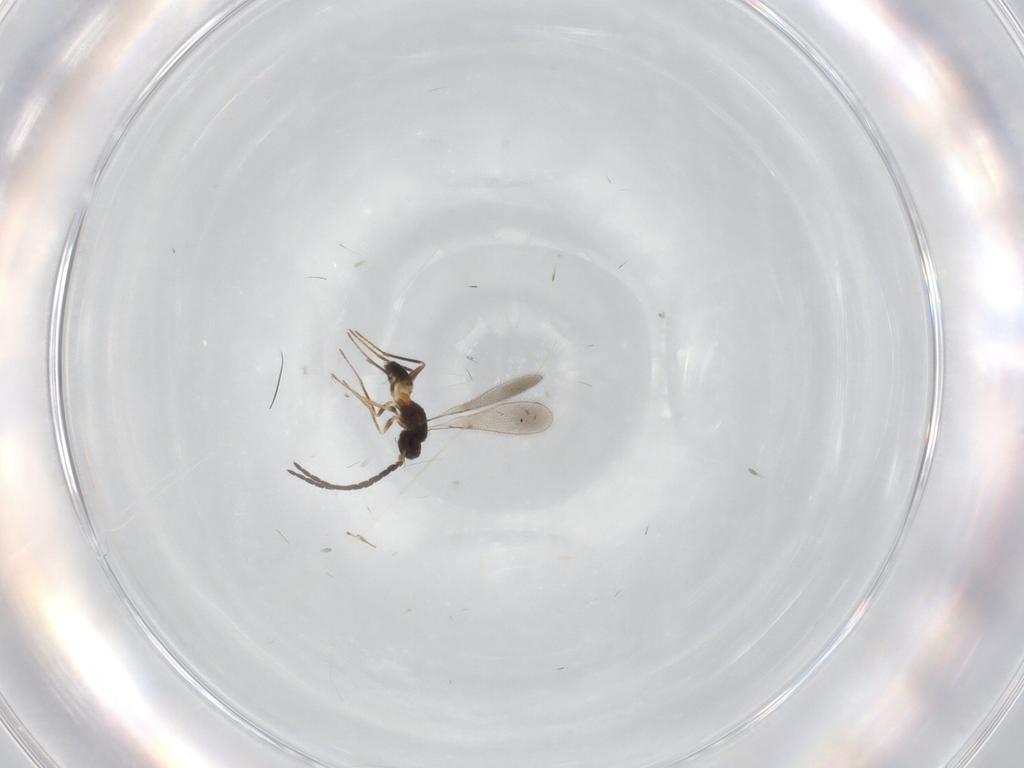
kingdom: Animalia
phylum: Arthropoda
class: Insecta
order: Hymenoptera
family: Mymaridae
